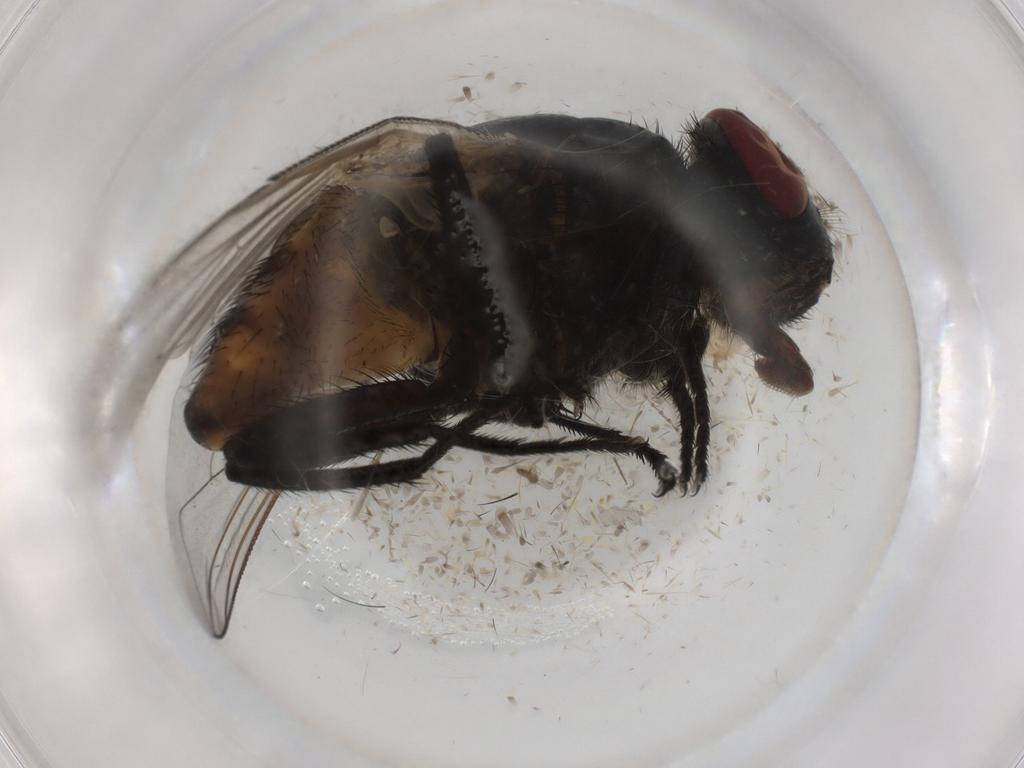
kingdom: Animalia
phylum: Arthropoda
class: Insecta
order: Diptera
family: Muscidae
